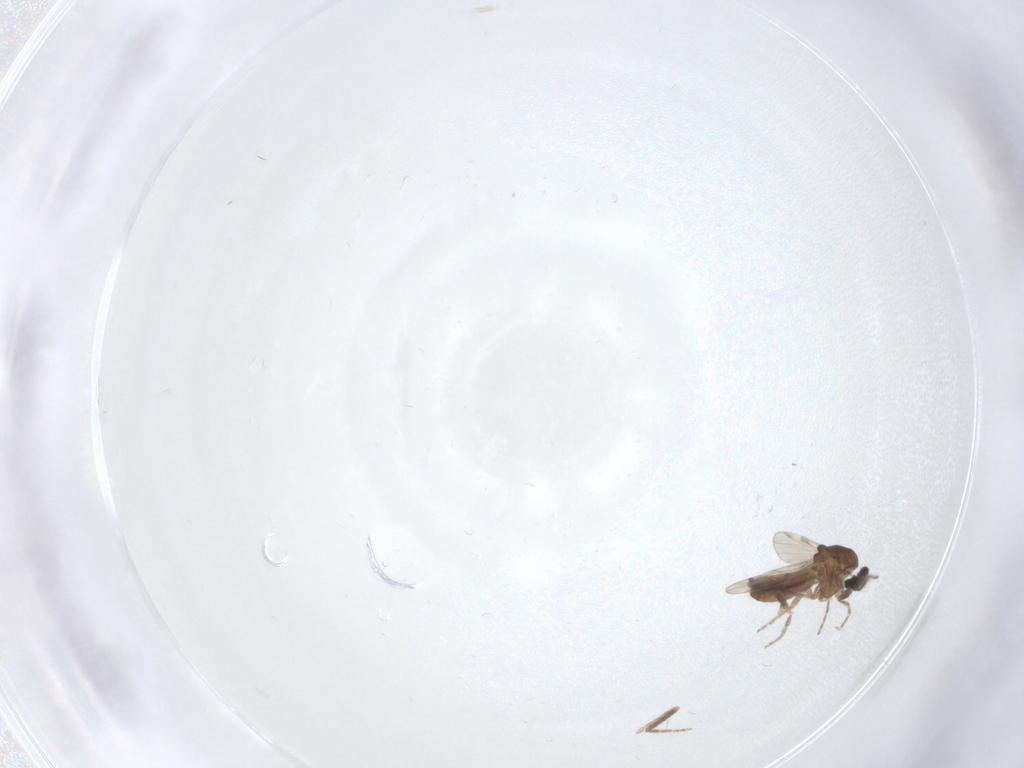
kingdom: Animalia
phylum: Arthropoda
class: Insecta
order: Diptera
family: Ceratopogonidae
